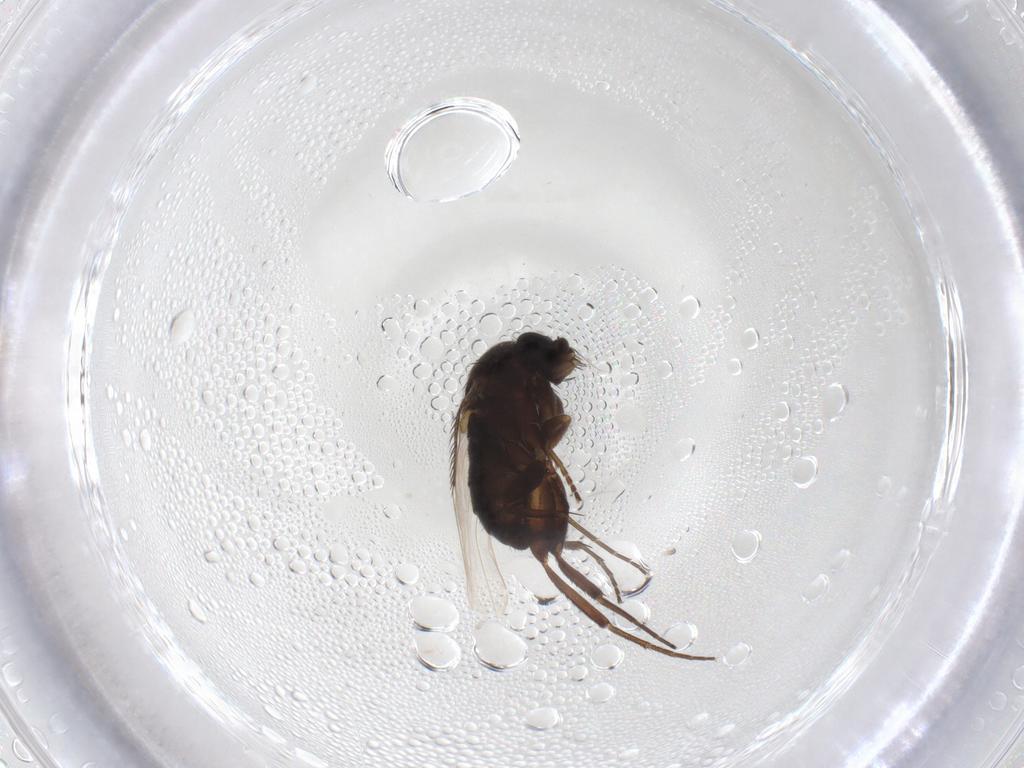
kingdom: Animalia
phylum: Arthropoda
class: Insecta
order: Diptera
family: Phoridae
